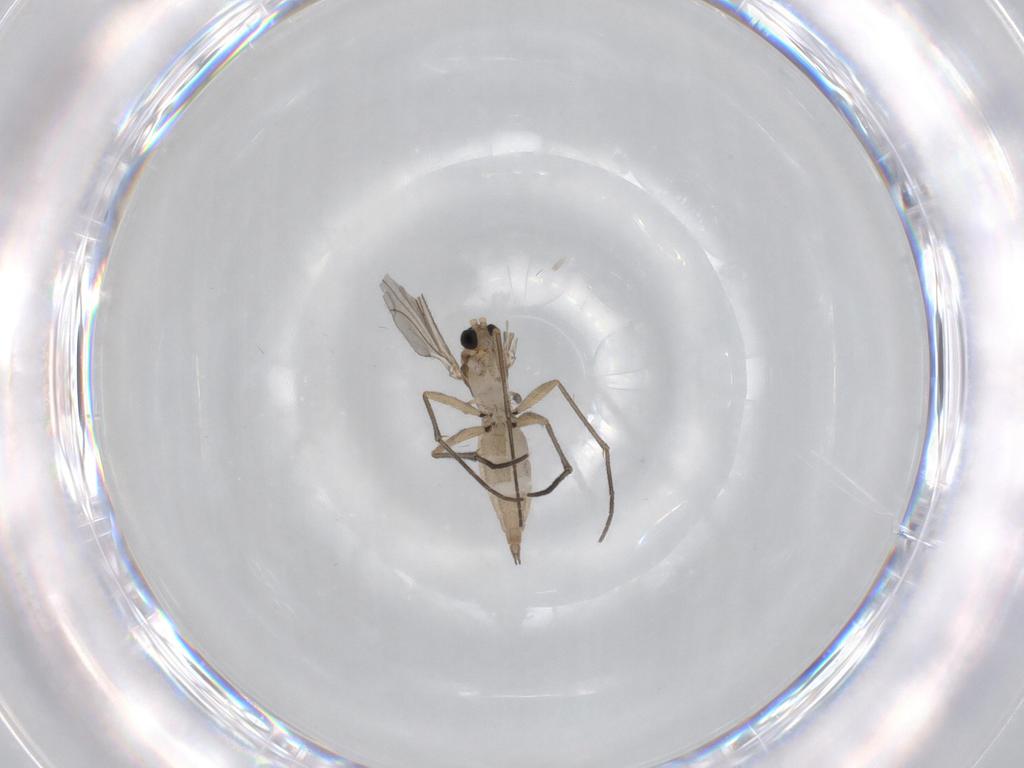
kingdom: Animalia
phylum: Arthropoda
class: Insecta
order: Diptera
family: Sciaridae
